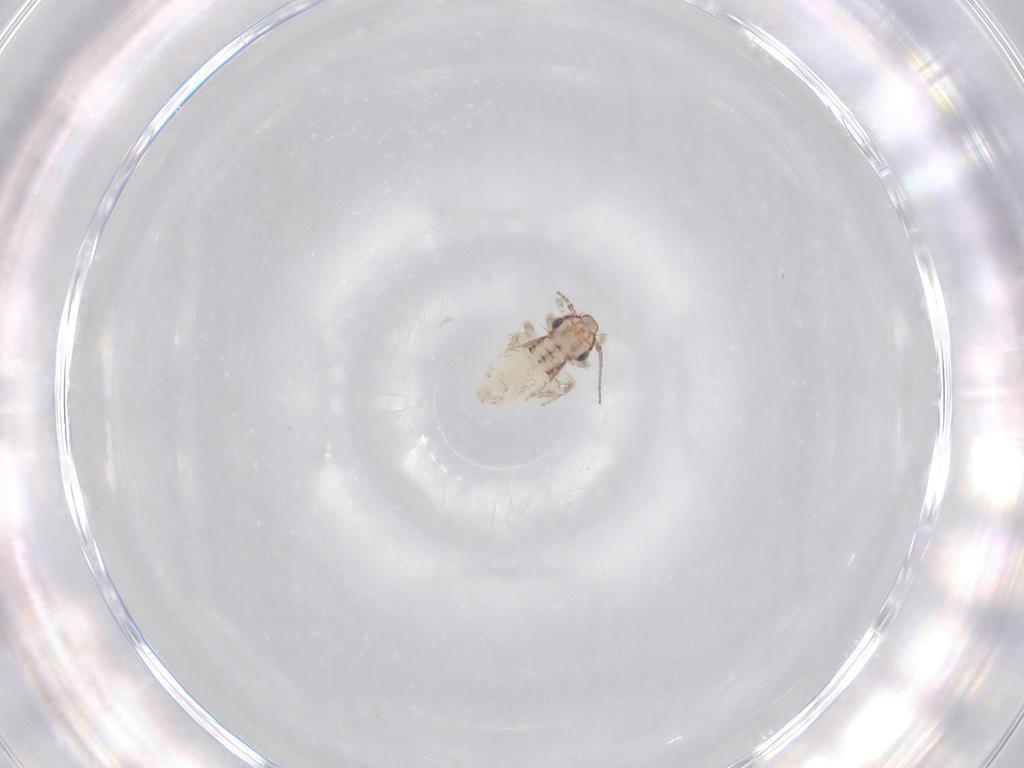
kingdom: Animalia
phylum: Arthropoda
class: Insecta
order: Psocodea
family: Lepidopsocidae
